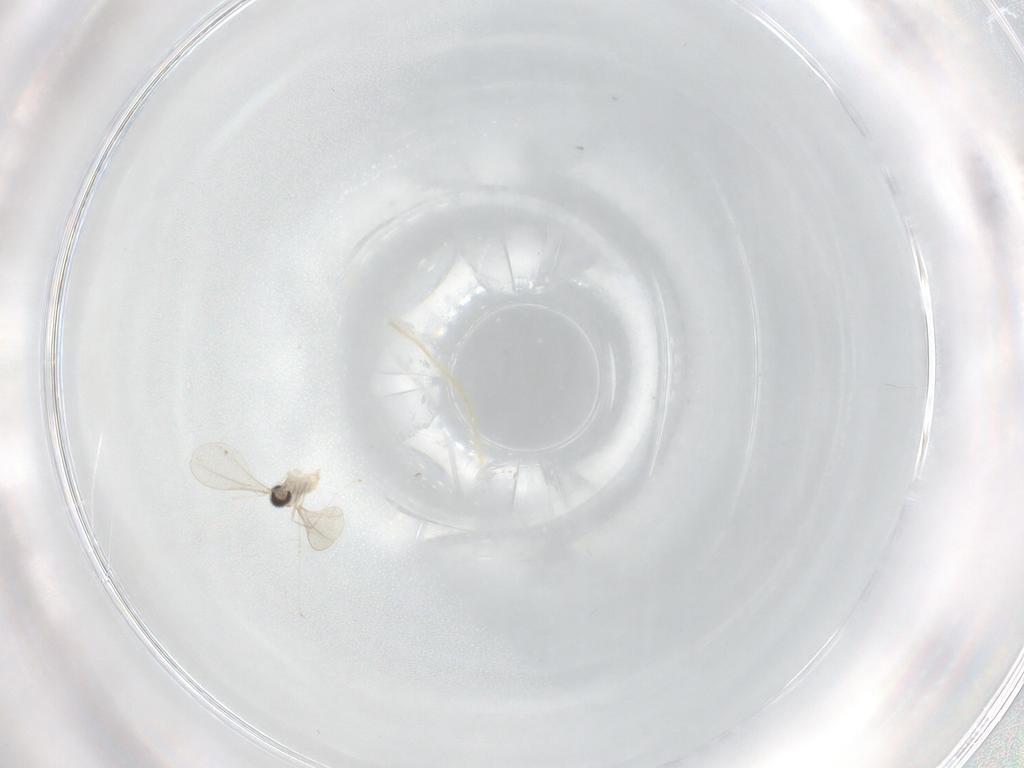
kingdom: Animalia
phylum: Arthropoda
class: Insecta
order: Diptera
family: Cecidomyiidae
